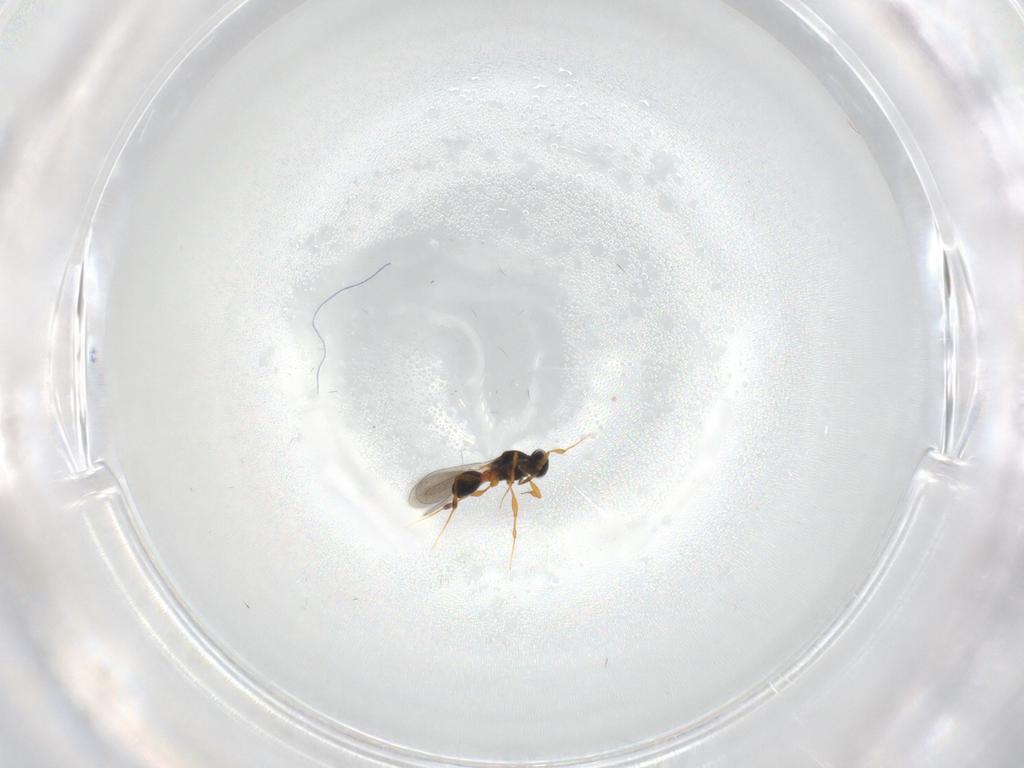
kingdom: Animalia
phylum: Arthropoda
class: Insecta
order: Hymenoptera
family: Platygastridae
